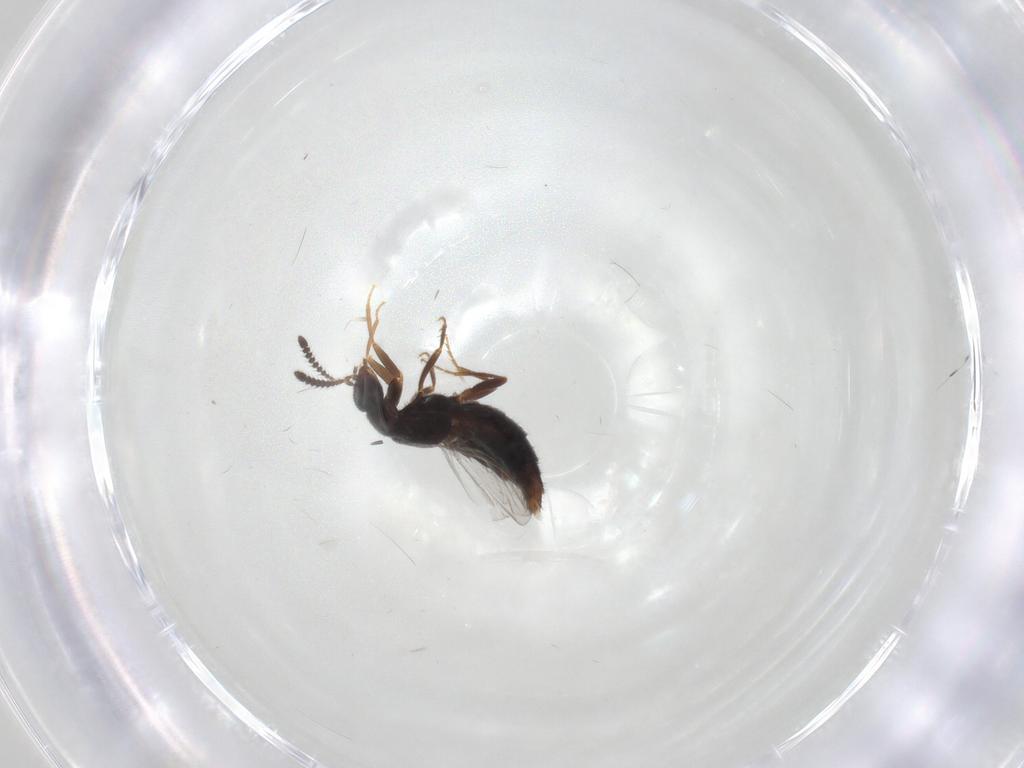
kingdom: Animalia
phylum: Arthropoda
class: Insecta
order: Coleoptera
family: Staphylinidae
